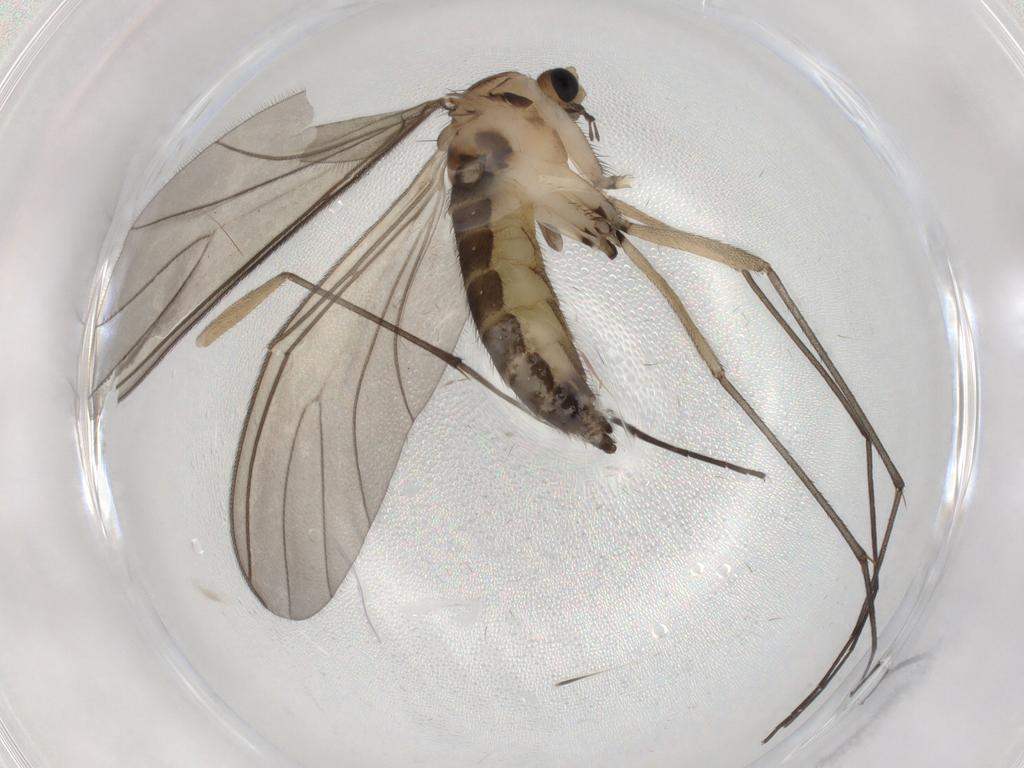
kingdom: Animalia
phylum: Arthropoda
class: Insecta
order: Diptera
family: Sciaridae
